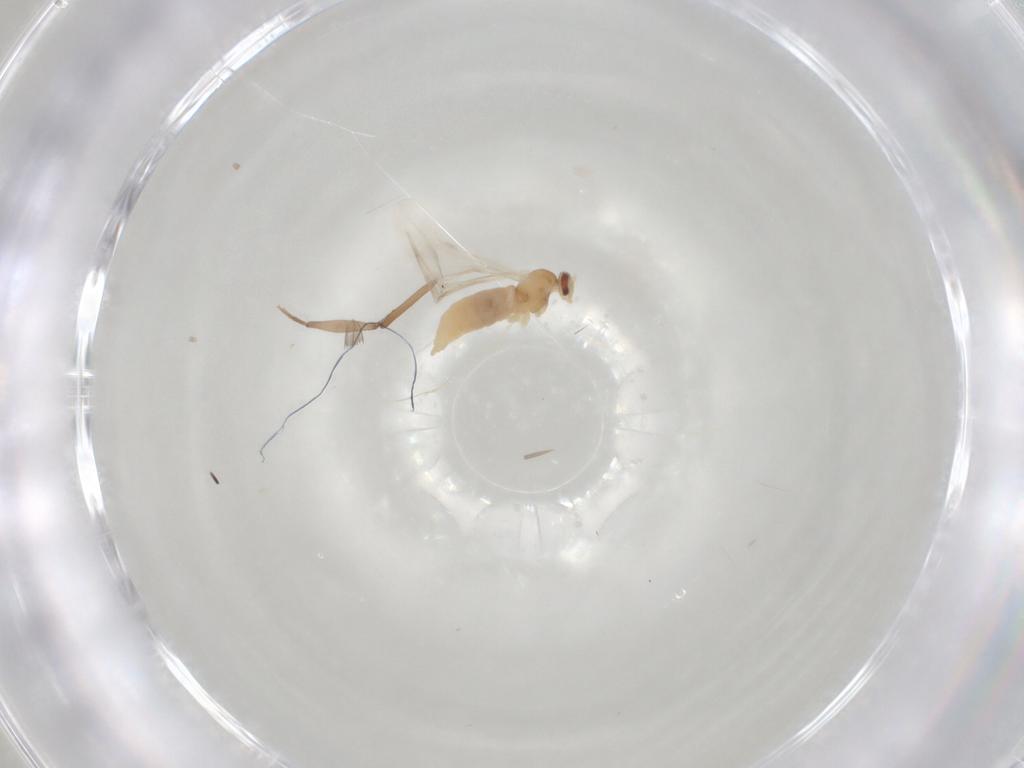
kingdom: Animalia
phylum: Arthropoda
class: Insecta
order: Diptera
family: Cecidomyiidae
